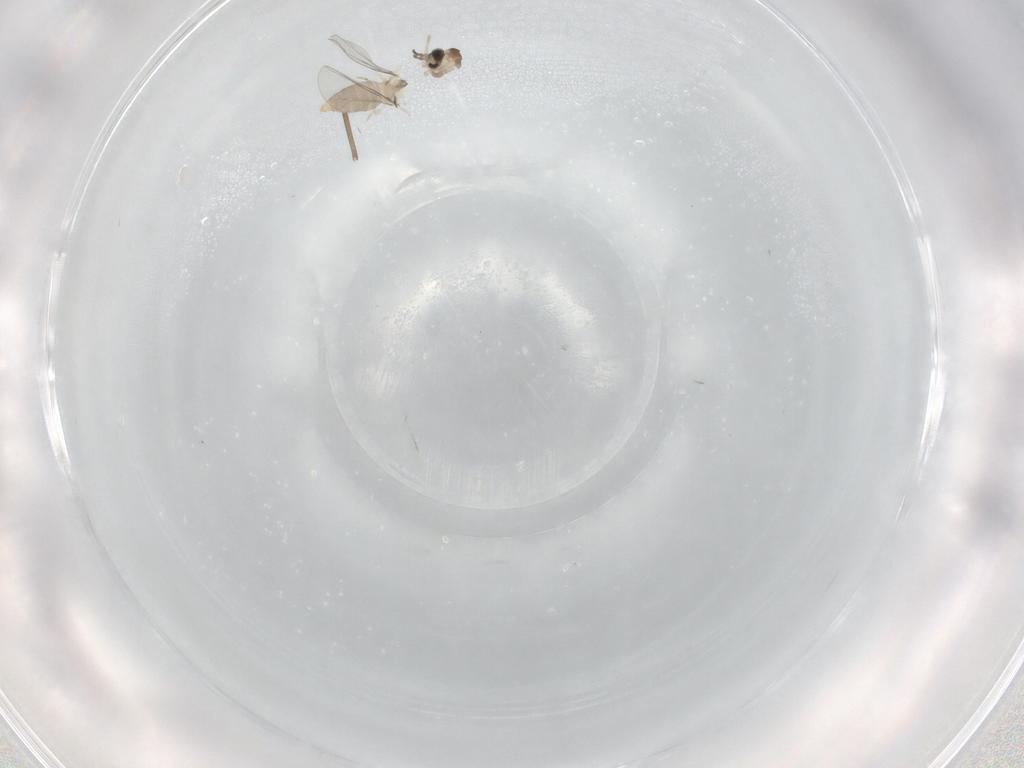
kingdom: Animalia
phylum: Arthropoda
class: Insecta
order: Diptera
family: Cecidomyiidae
